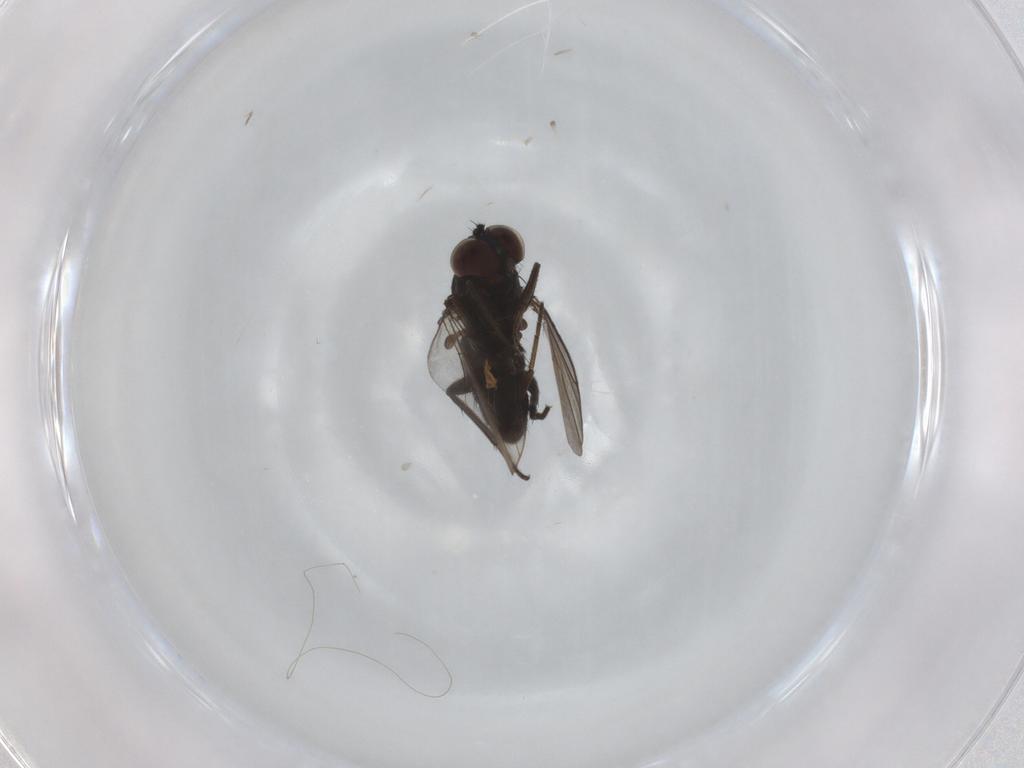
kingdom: Animalia
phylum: Arthropoda
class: Insecta
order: Diptera
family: Dolichopodidae
